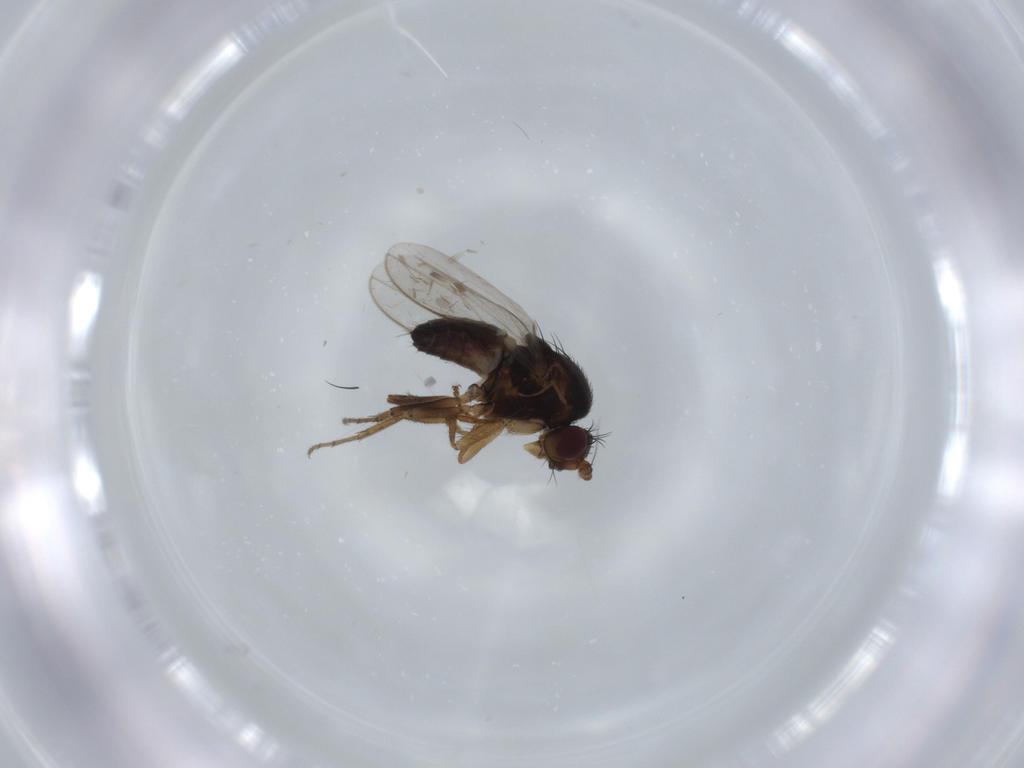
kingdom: Animalia
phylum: Arthropoda
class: Insecta
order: Diptera
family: Sphaeroceridae
